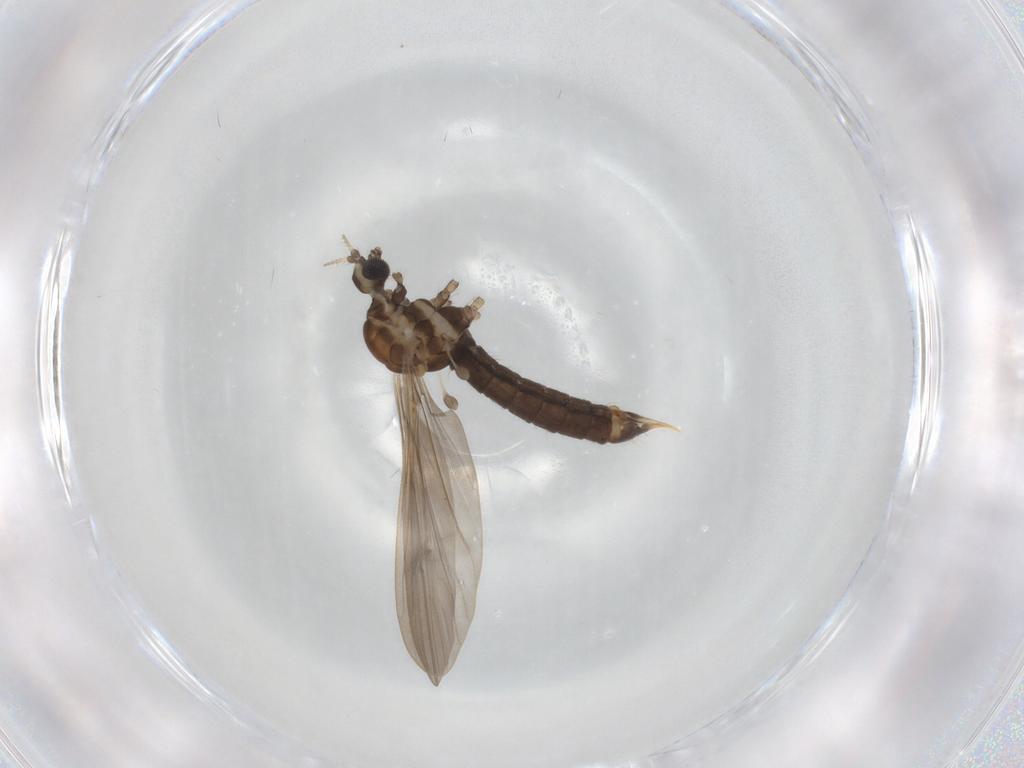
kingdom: Animalia
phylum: Arthropoda
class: Insecta
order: Diptera
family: Limoniidae
